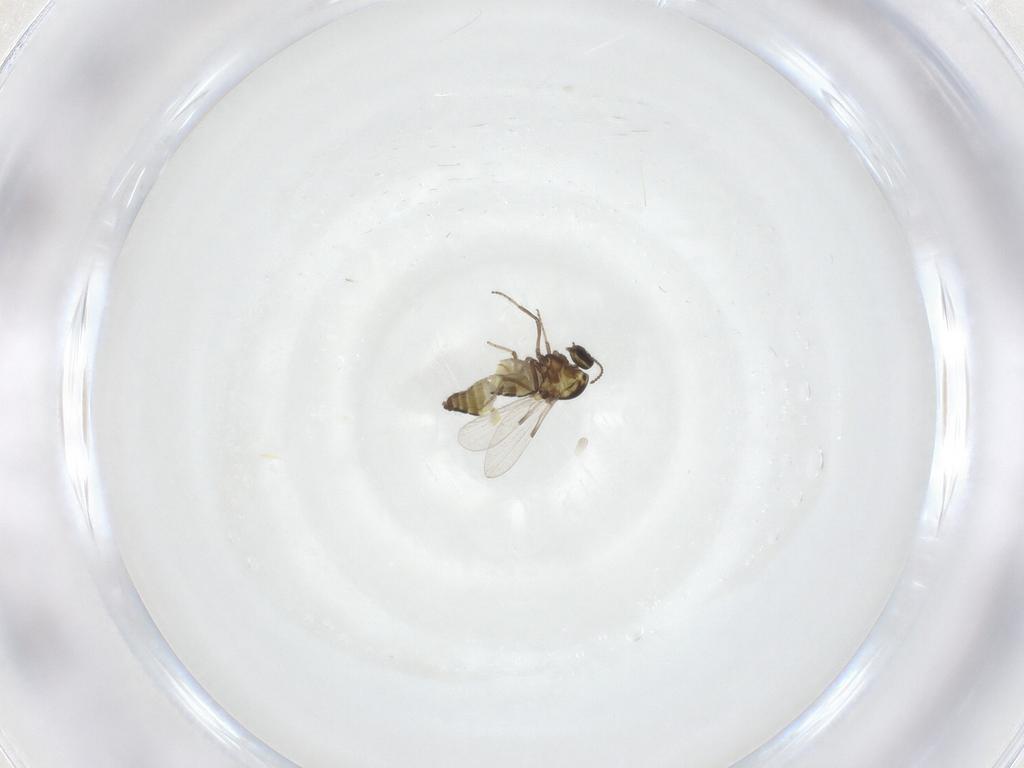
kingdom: Animalia
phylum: Arthropoda
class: Insecta
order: Diptera
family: Ceratopogonidae
